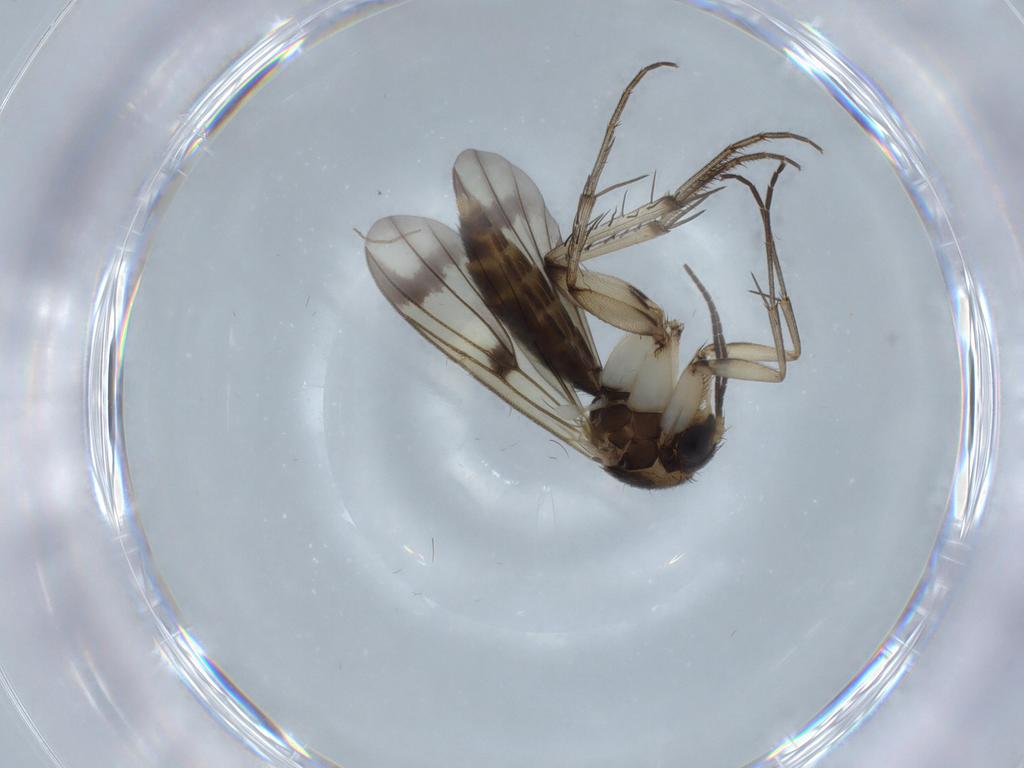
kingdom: Animalia
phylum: Arthropoda
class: Insecta
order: Diptera
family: Mycetophilidae
